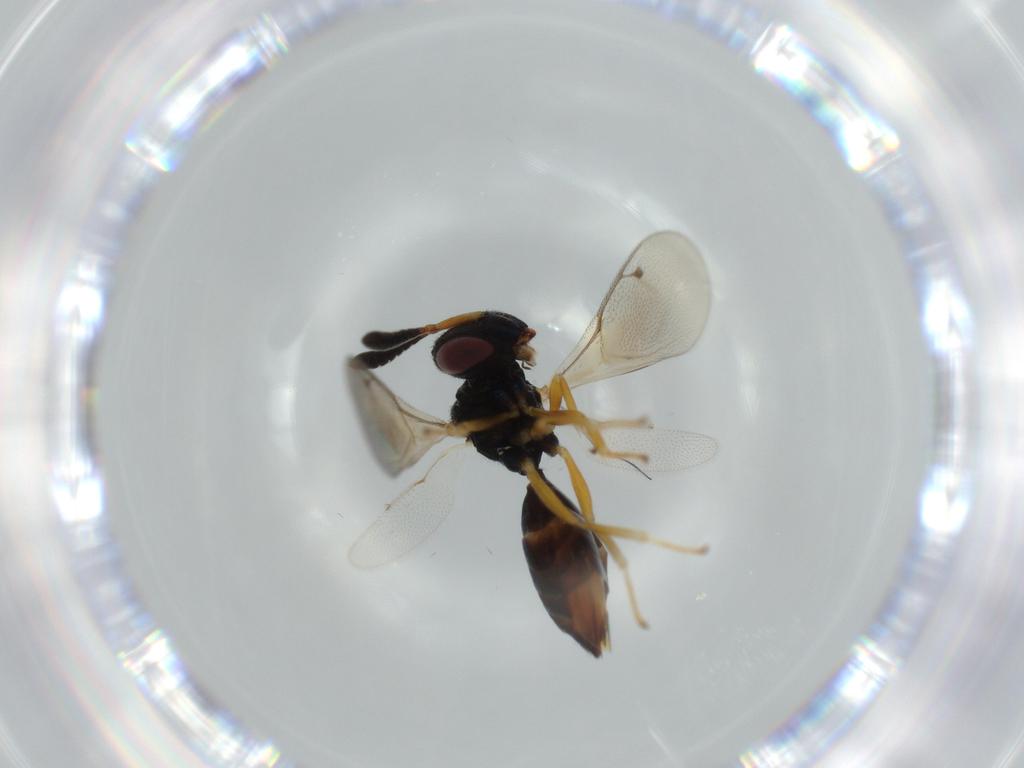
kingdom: Animalia
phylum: Arthropoda
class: Insecta
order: Hymenoptera
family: Agaonidae
